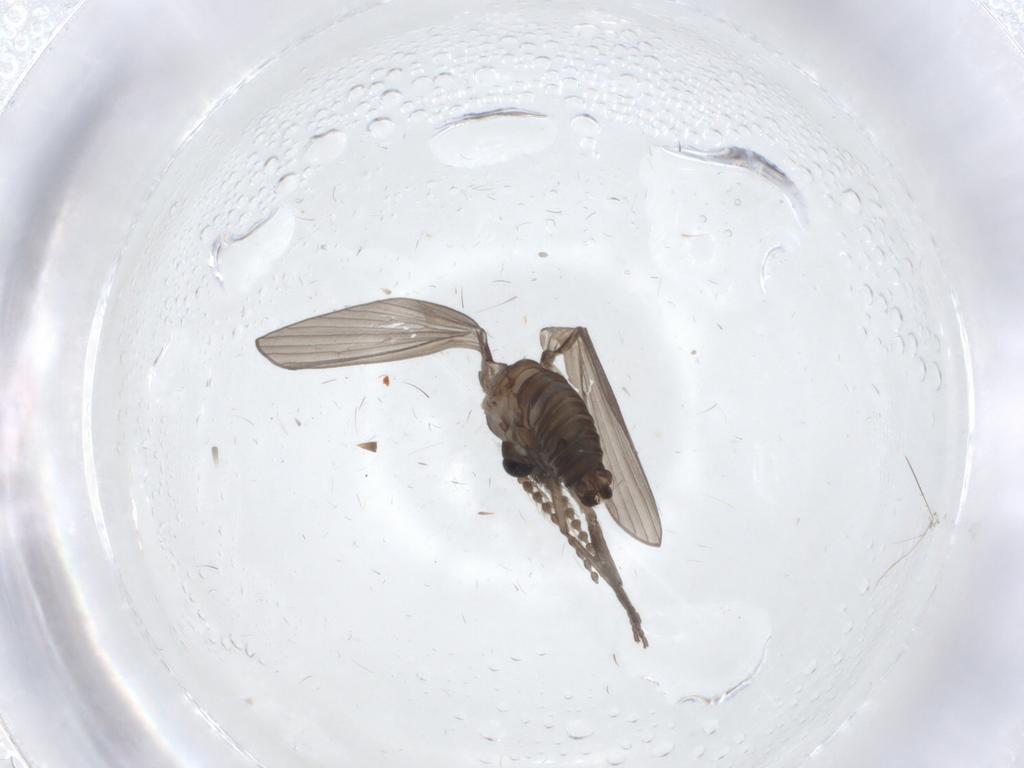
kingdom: Animalia
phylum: Arthropoda
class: Insecta
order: Diptera
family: Psychodidae
